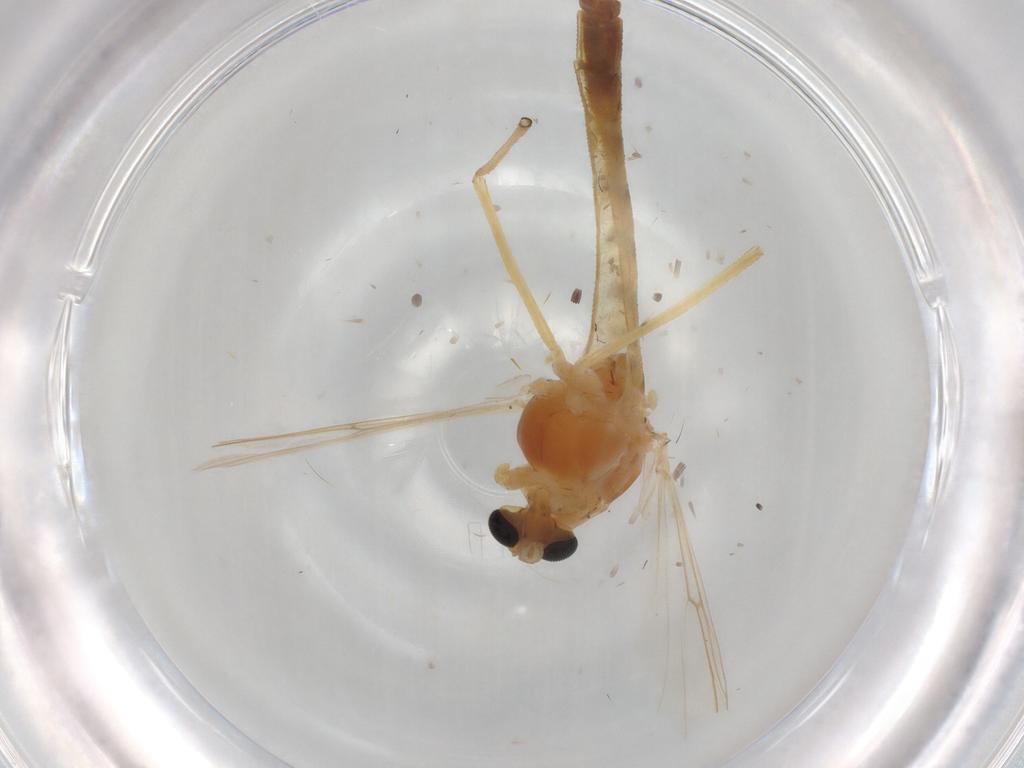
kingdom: Animalia
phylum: Arthropoda
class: Insecta
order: Diptera
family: Chironomidae
